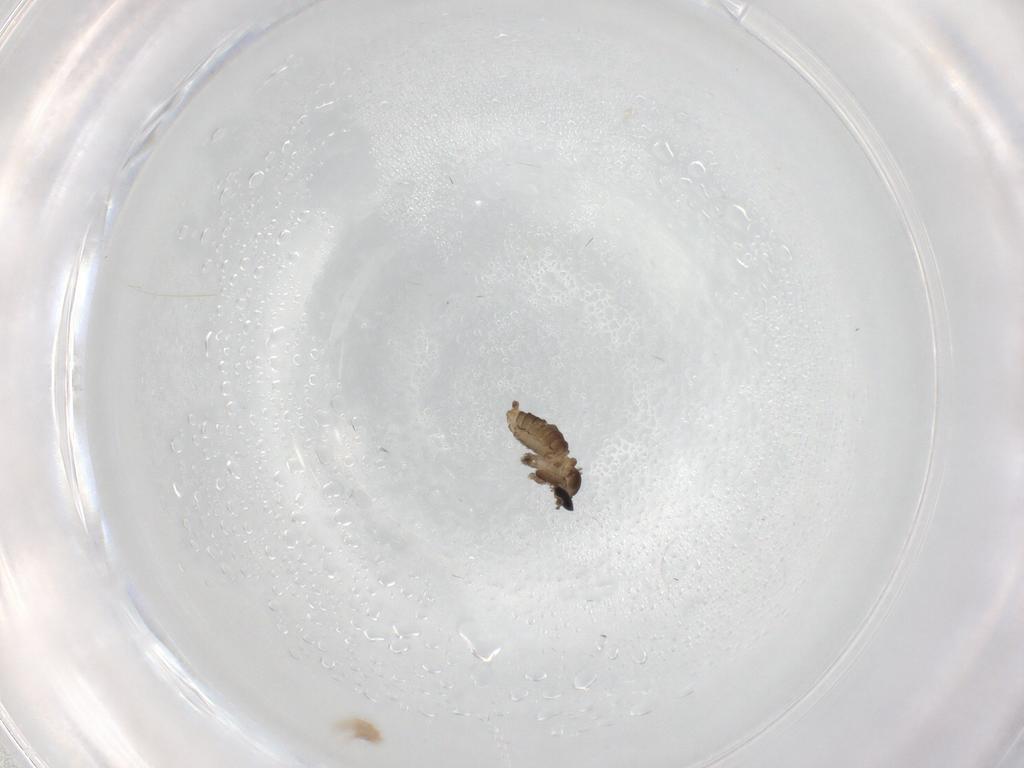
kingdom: Animalia
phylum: Arthropoda
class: Insecta
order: Diptera
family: Cecidomyiidae
